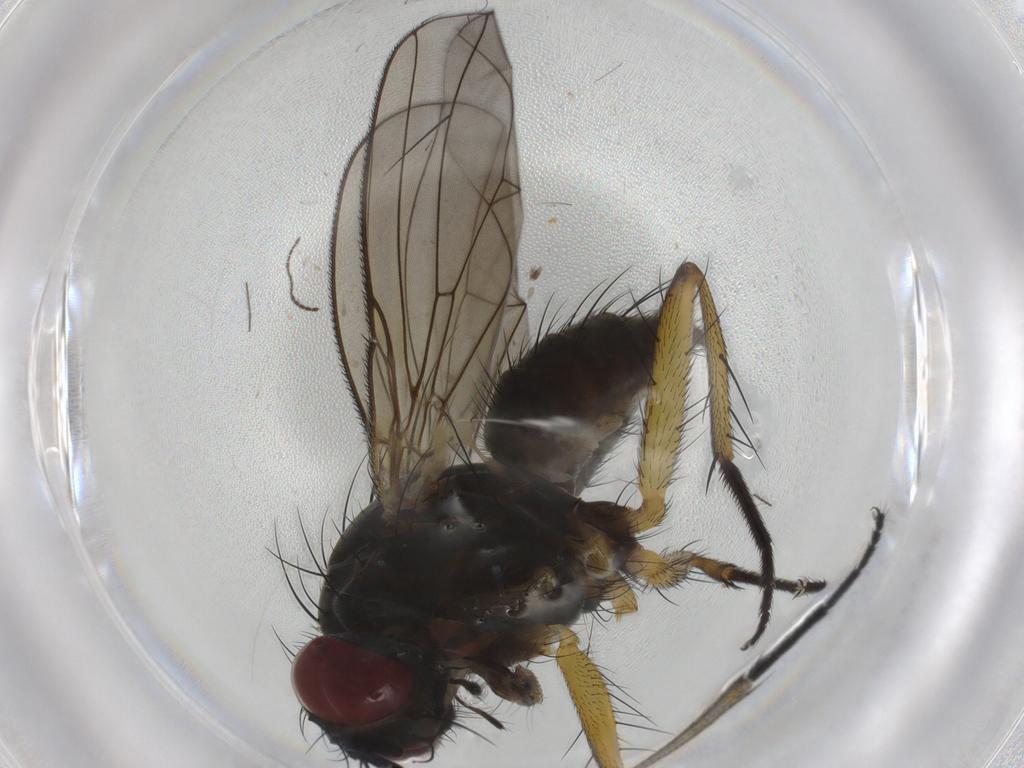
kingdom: Animalia
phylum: Arthropoda
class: Insecta
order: Diptera
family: Muscidae
